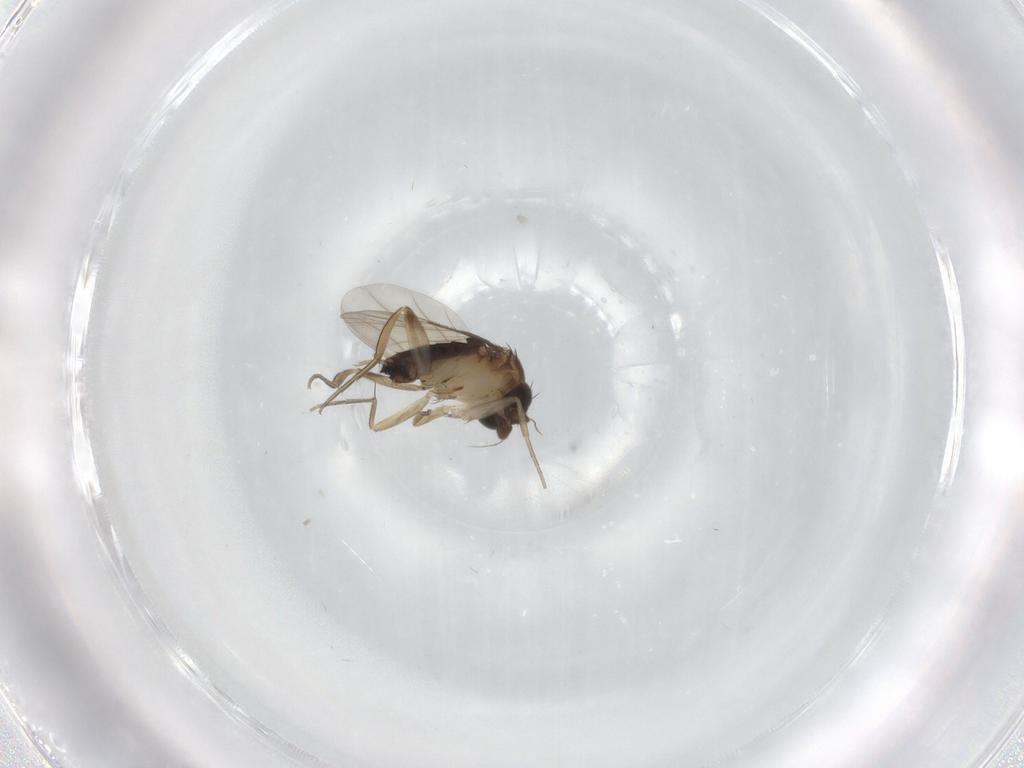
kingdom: Animalia
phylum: Arthropoda
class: Insecta
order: Diptera
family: Phoridae
